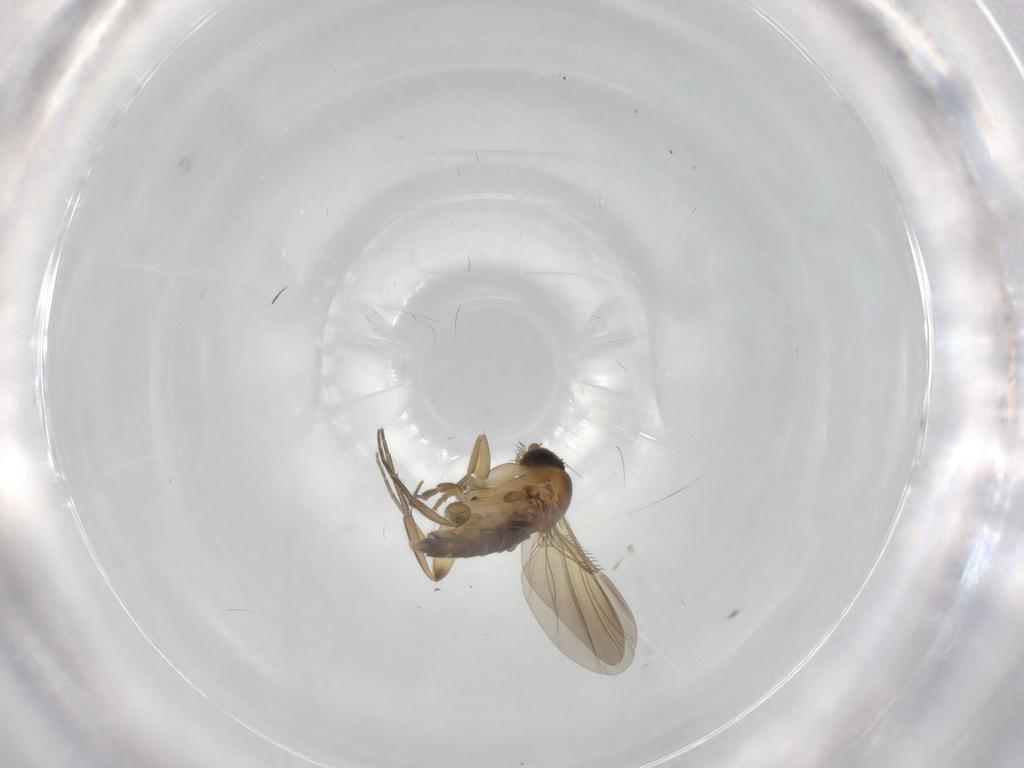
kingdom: Animalia
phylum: Arthropoda
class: Insecta
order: Diptera
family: Phoridae
